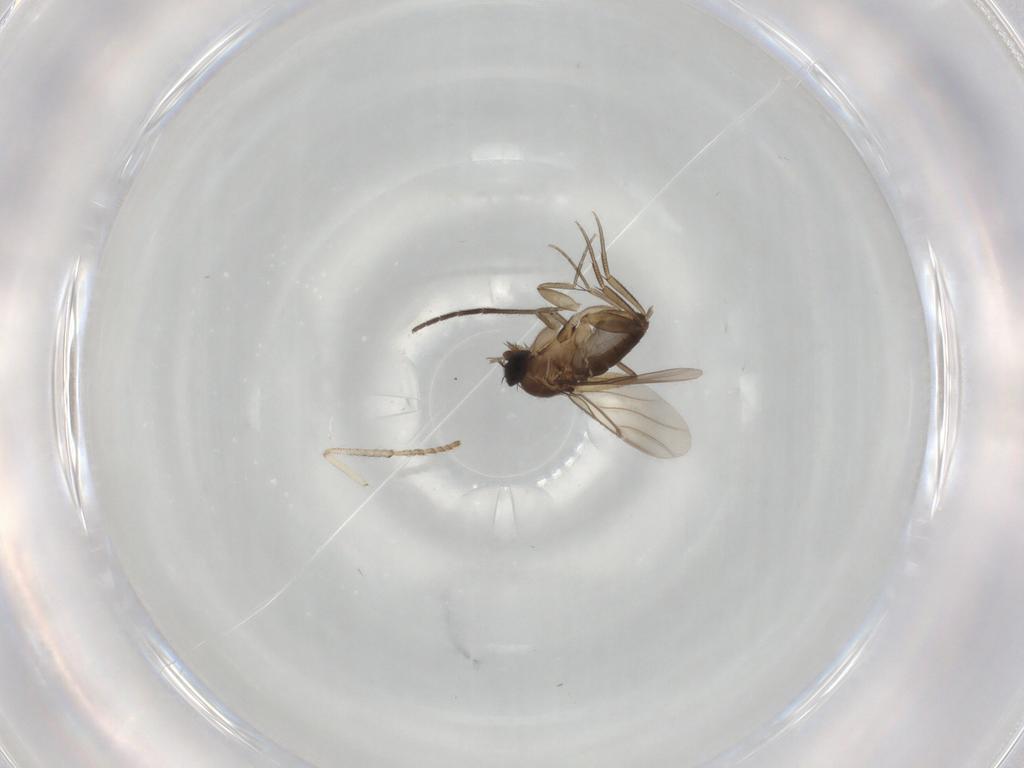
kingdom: Animalia
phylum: Arthropoda
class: Insecta
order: Diptera
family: Sciaridae
